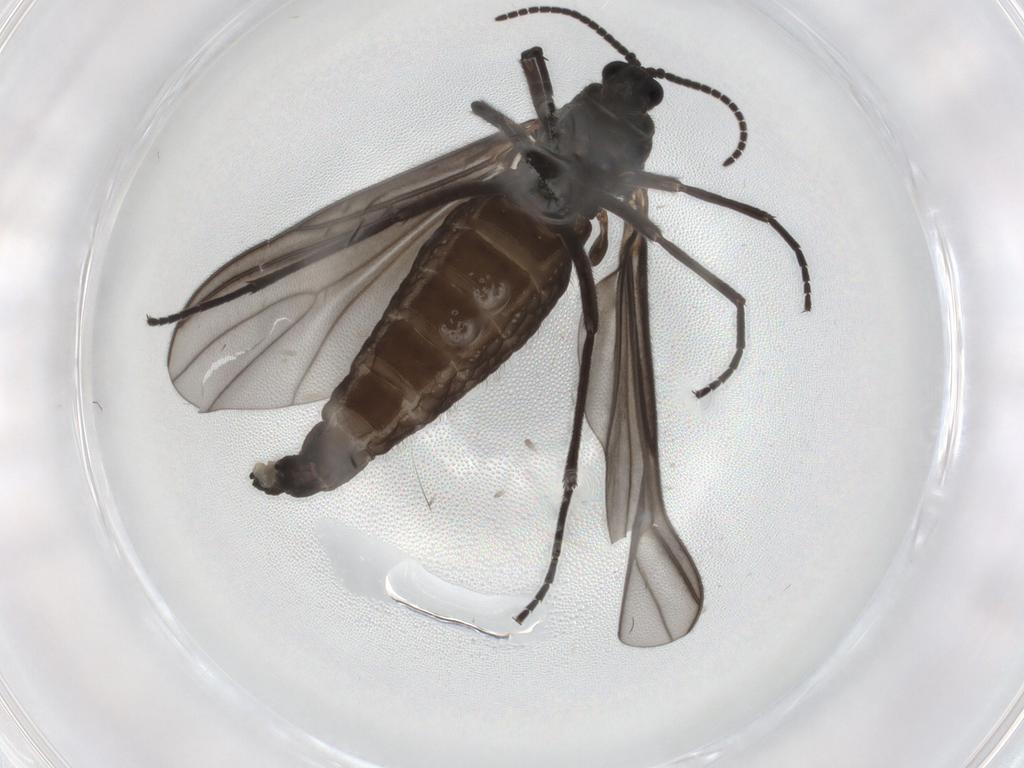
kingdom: Animalia
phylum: Arthropoda
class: Insecta
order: Diptera
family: Sciaridae
